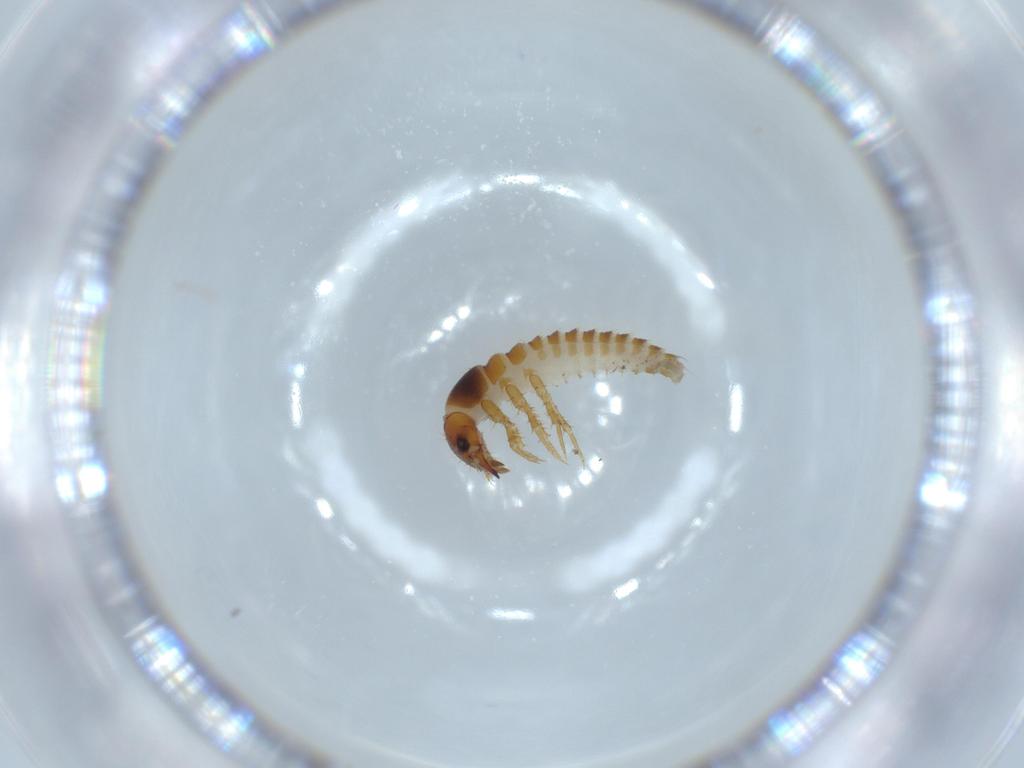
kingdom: Animalia
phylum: Arthropoda
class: Insecta
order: Coleoptera
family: Meloidae
